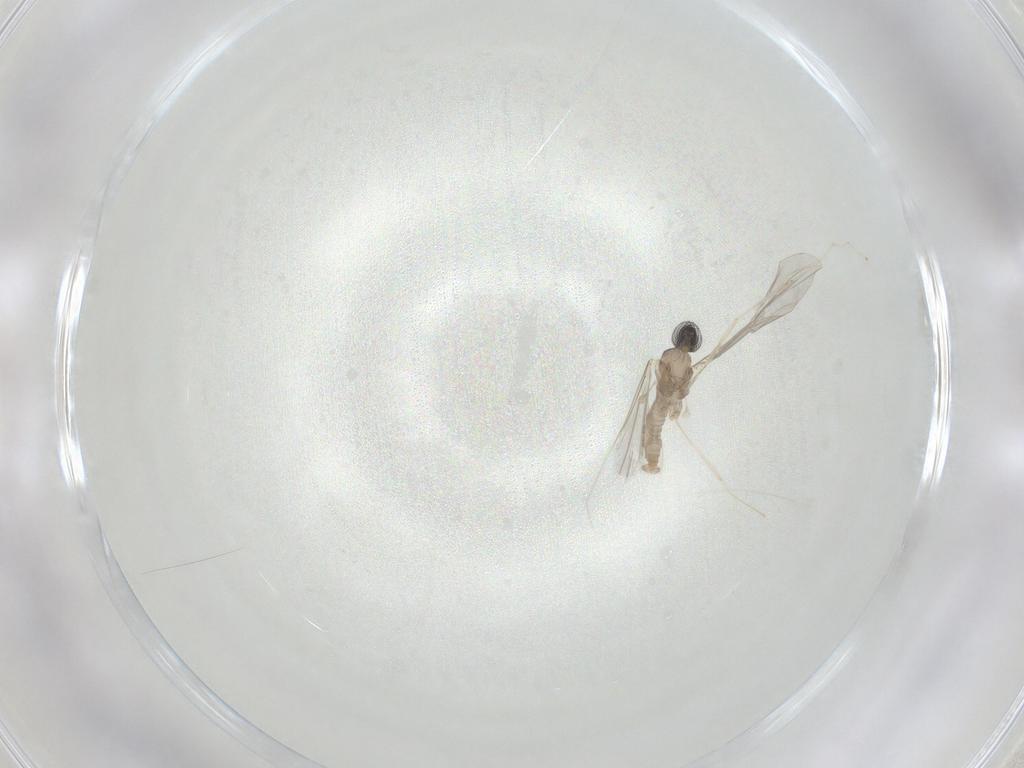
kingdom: Animalia
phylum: Arthropoda
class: Insecta
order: Diptera
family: Cecidomyiidae
